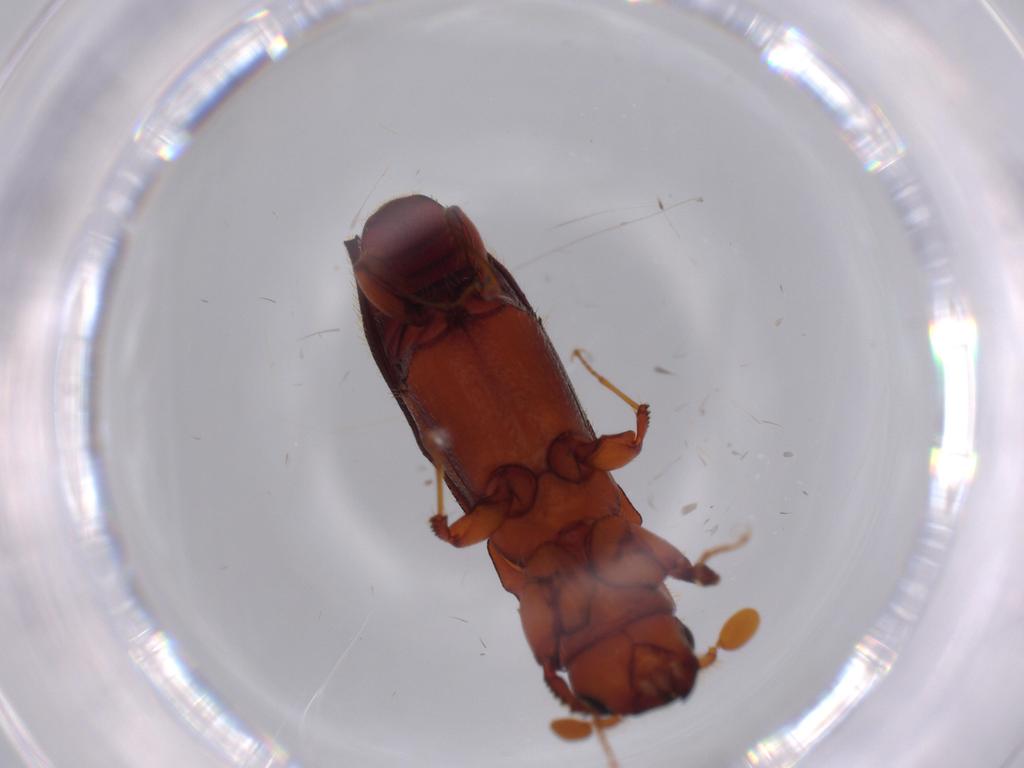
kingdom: Animalia
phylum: Arthropoda
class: Insecta
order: Coleoptera
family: Curculionidae
